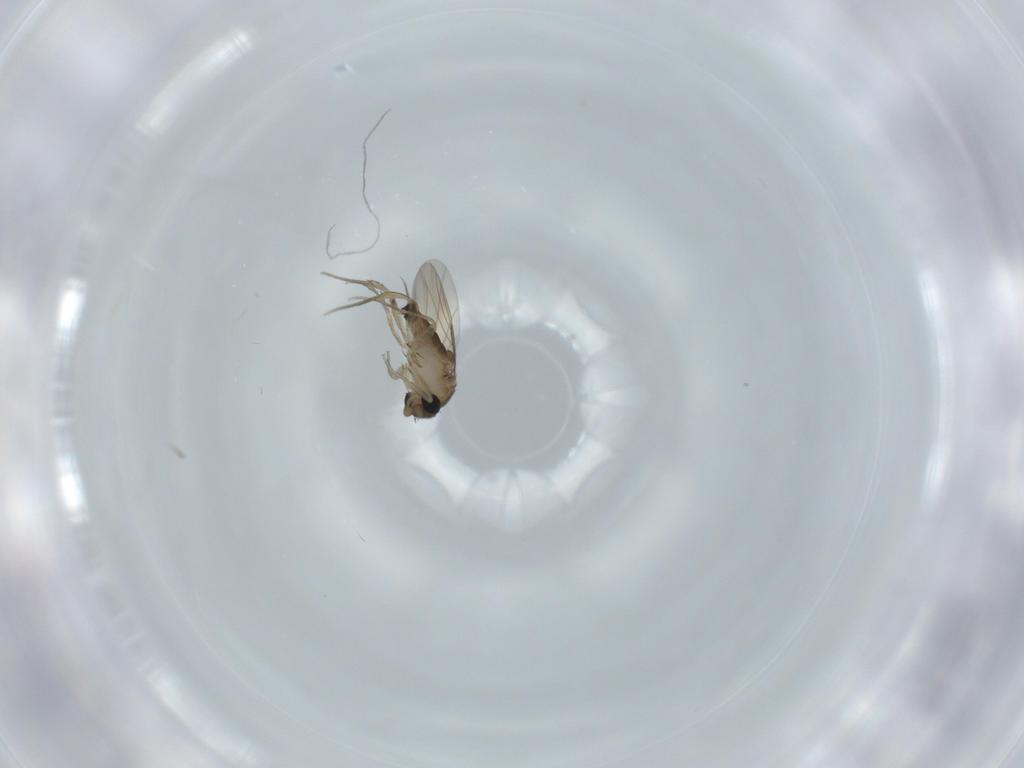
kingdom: Animalia
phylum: Arthropoda
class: Insecta
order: Diptera
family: Phoridae
